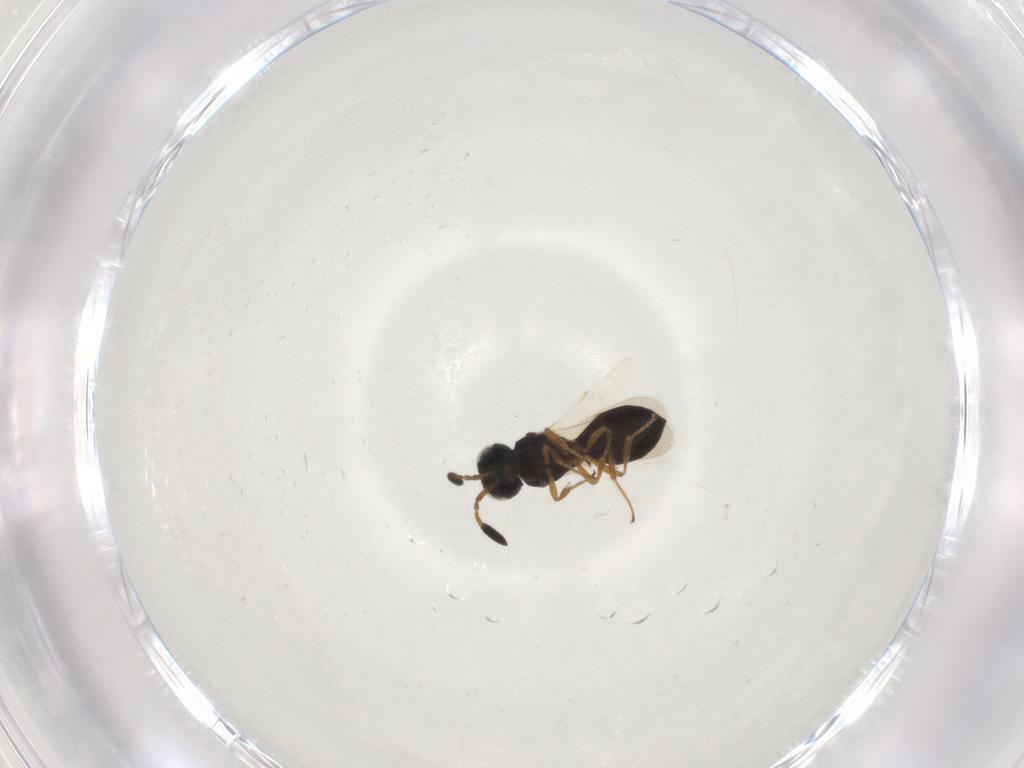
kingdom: Animalia
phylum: Arthropoda
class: Insecta
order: Hymenoptera
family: Scelionidae
